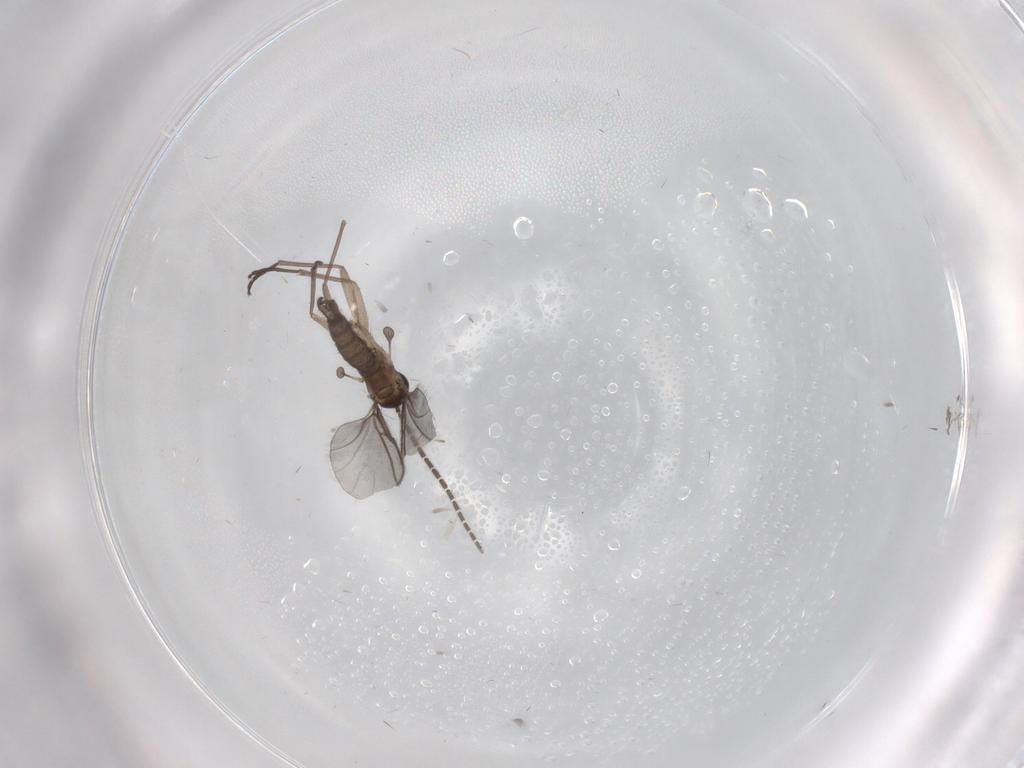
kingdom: Animalia
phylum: Arthropoda
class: Insecta
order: Diptera
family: Sciaridae
